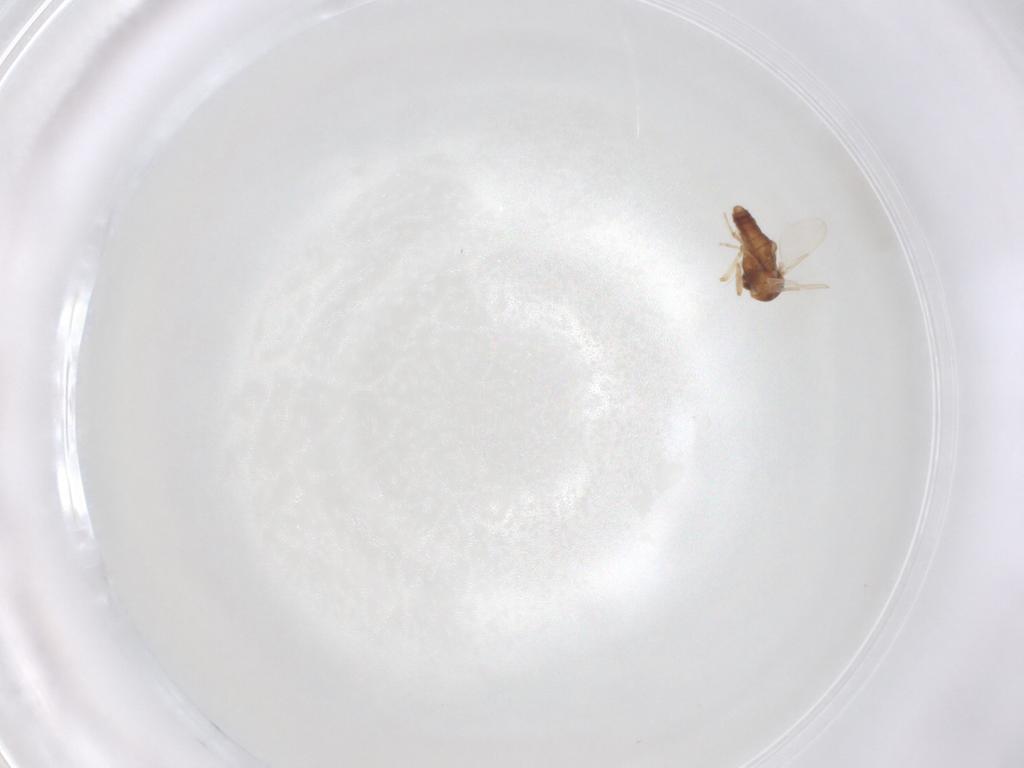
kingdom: Animalia
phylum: Arthropoda
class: Insecta
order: Diptera
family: Ephydridae
